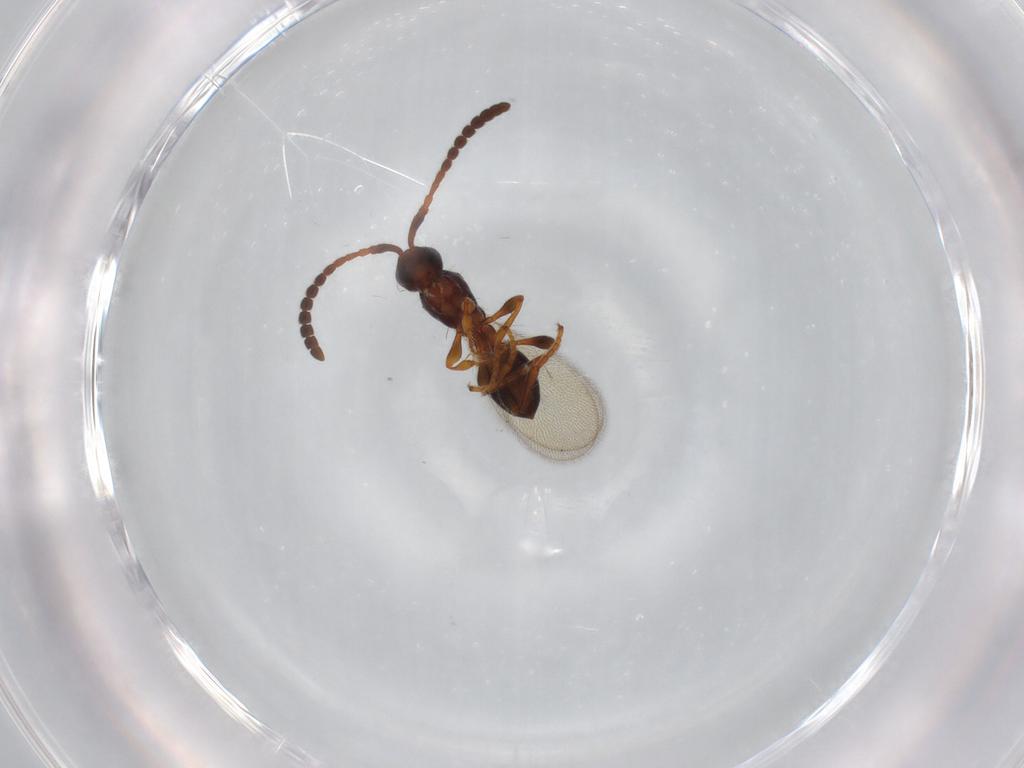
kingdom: Animalia
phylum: Arthropoda
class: Insecta
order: Hymenoptera
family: Diapriidae
